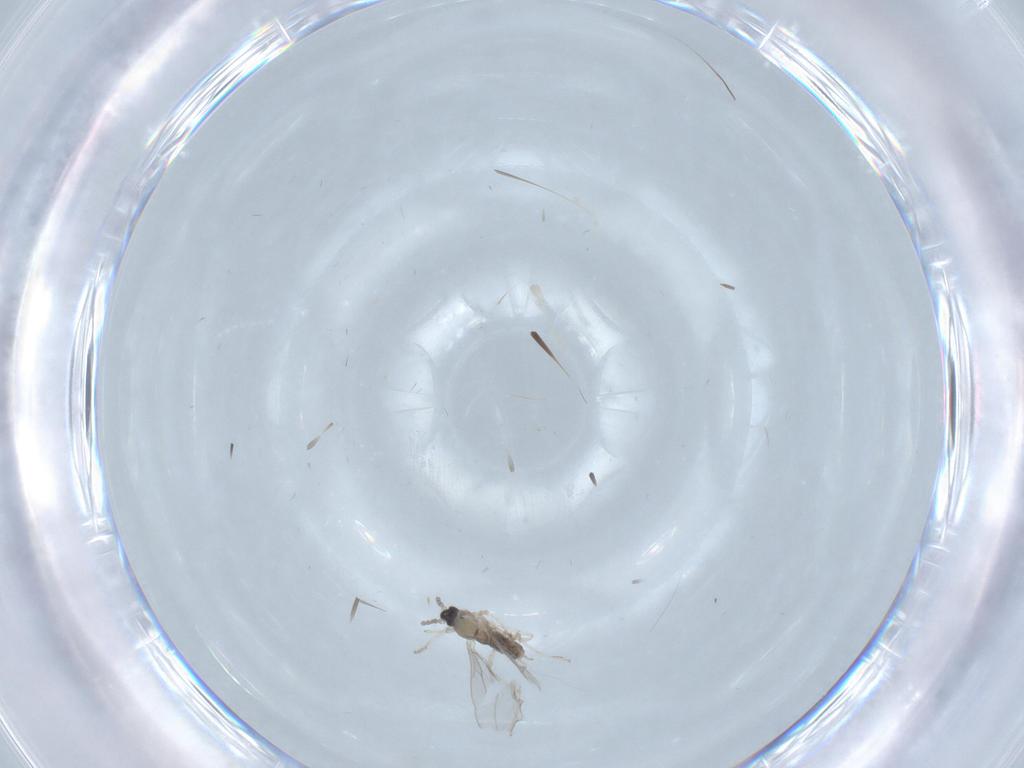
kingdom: Animalia
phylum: Arthropoda
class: Insecta
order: Diptera
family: Cecidomyiidae
